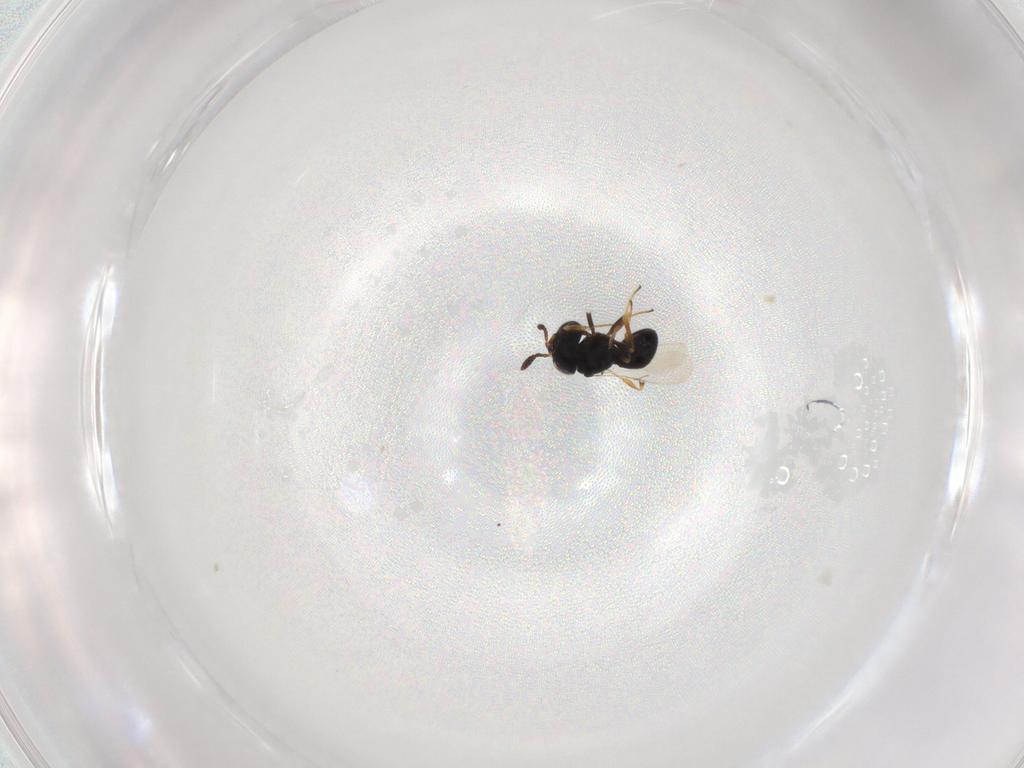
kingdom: Animalia
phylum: Arthropoda
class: Insecta
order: Hymenoptera
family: Scelionidae
